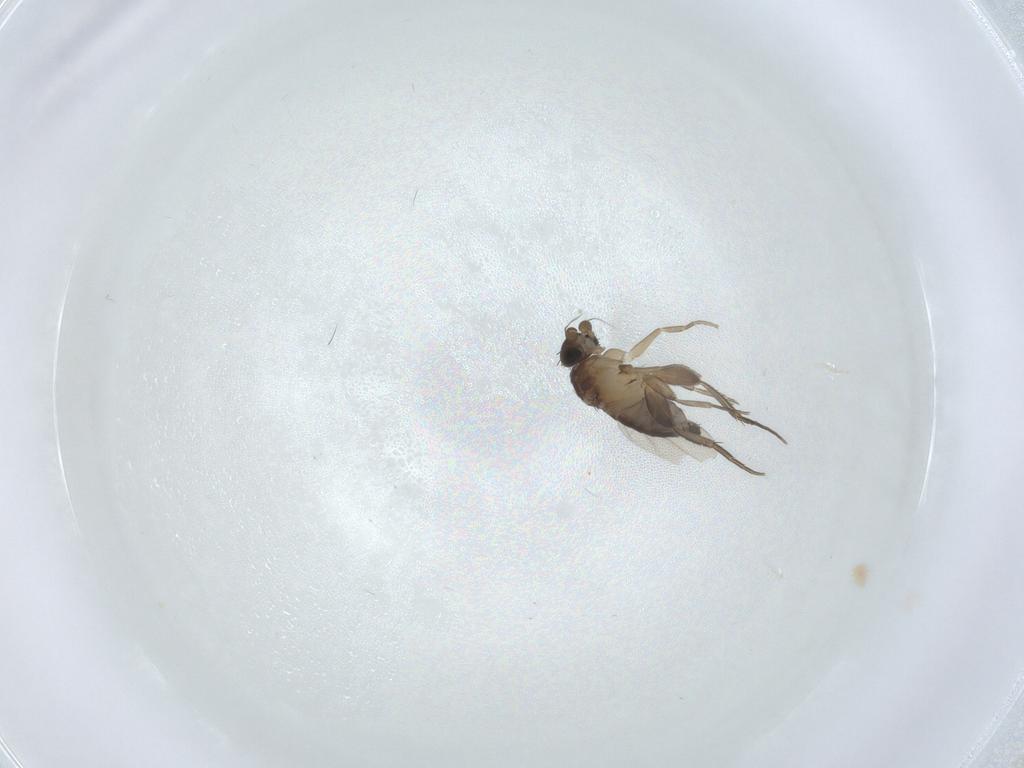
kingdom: Animalia
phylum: Arthropoda
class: Insecta
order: Diptera
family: Phoridae
